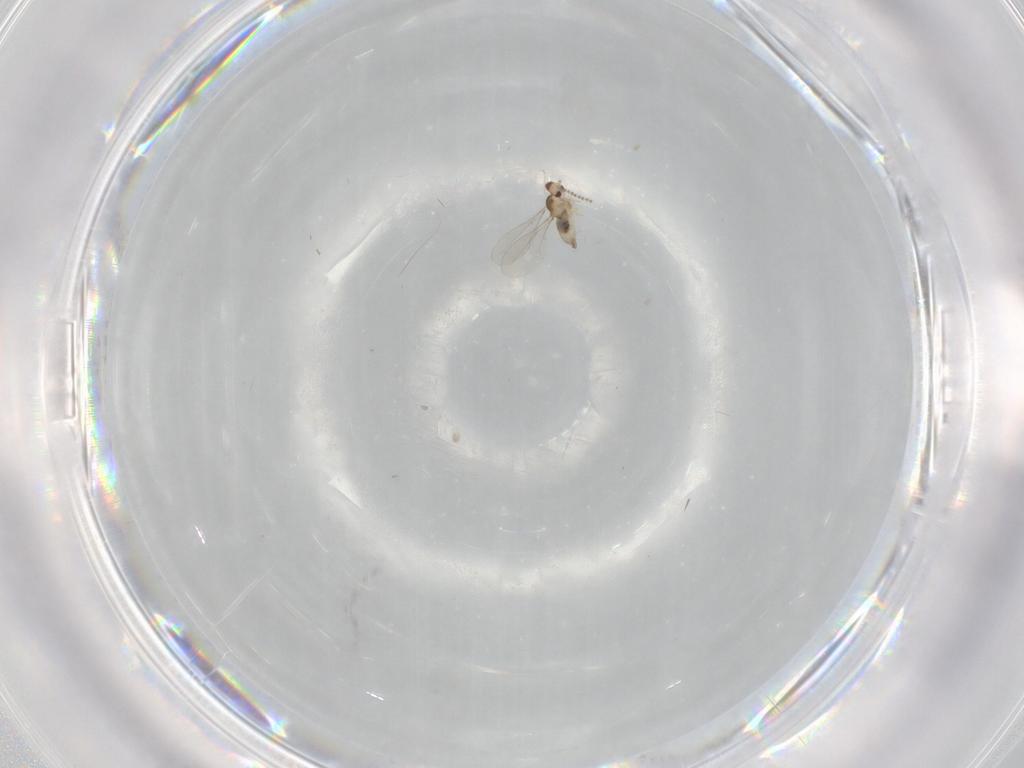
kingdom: Animalia
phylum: Arthropoda
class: Insecta
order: Diptera
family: Cecidomyiidae
